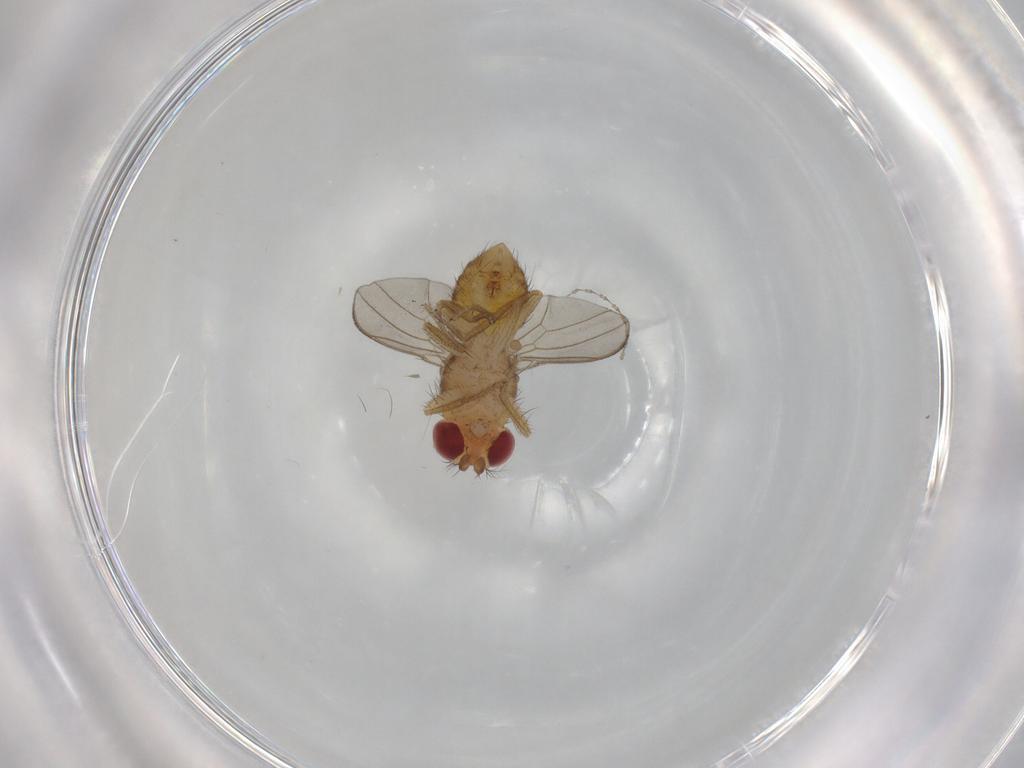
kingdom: Animalia
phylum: Arthropoda
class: Insecta
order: Diptera
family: Drosophilidae
